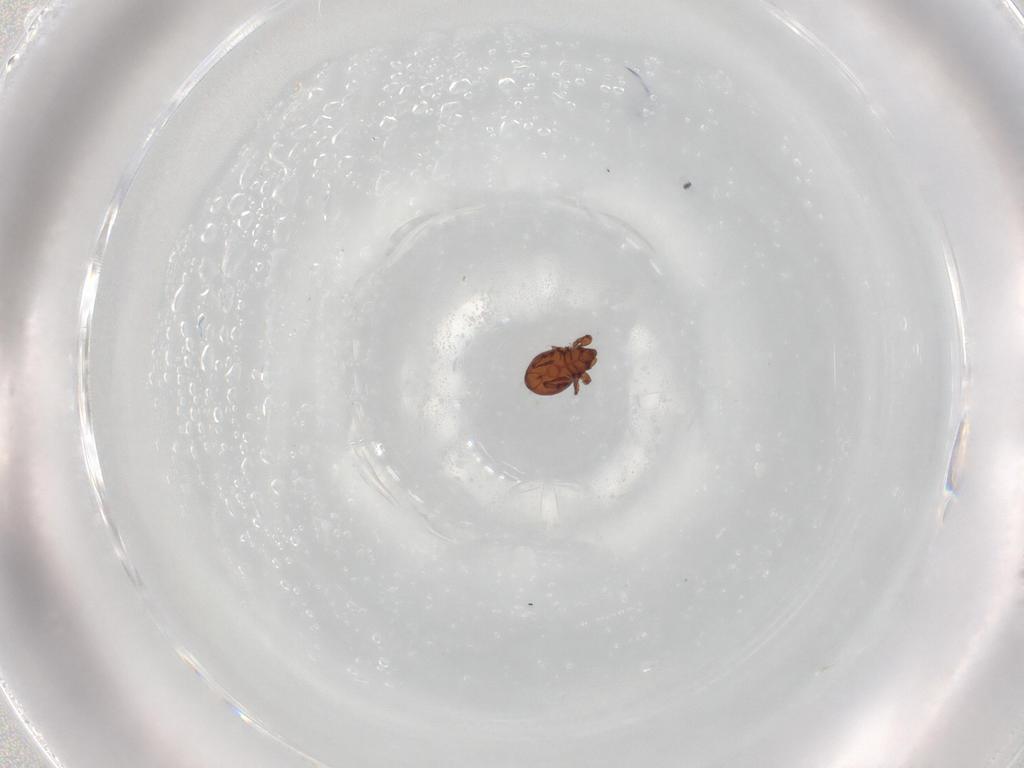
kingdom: Animalia
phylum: Arthropoda
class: Arachnida
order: Sarcoptiformes
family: Eremaeidae
